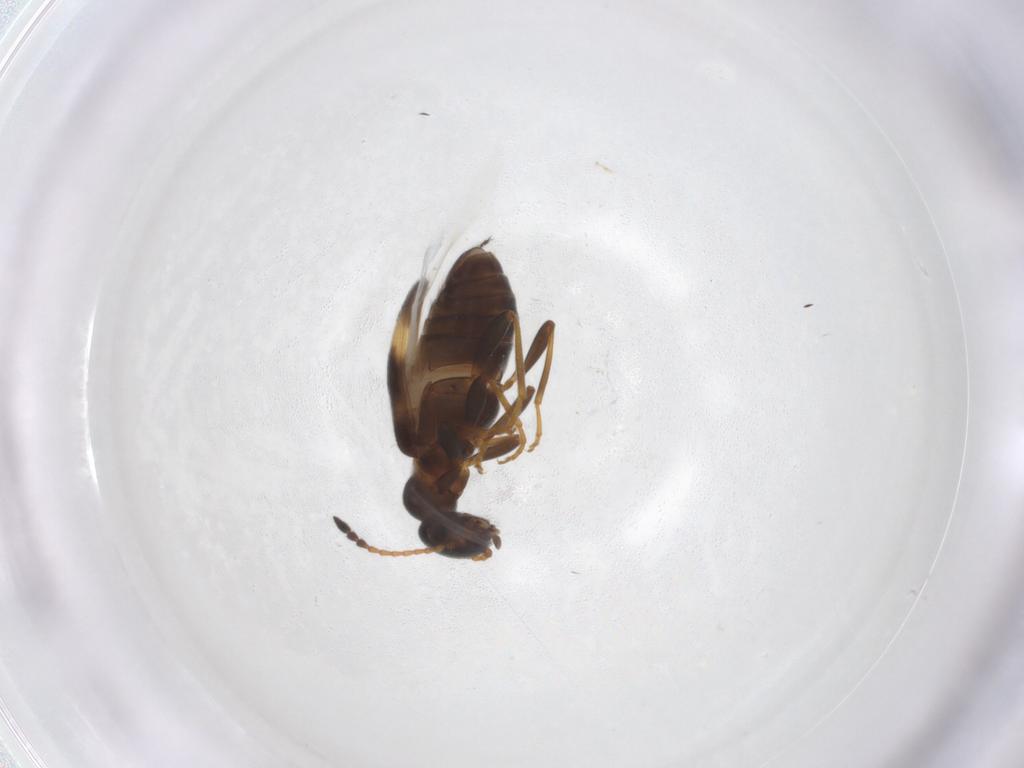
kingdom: Animalia
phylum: Arthropoda
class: Insecta
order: Coleoptera
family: Anthicidae
